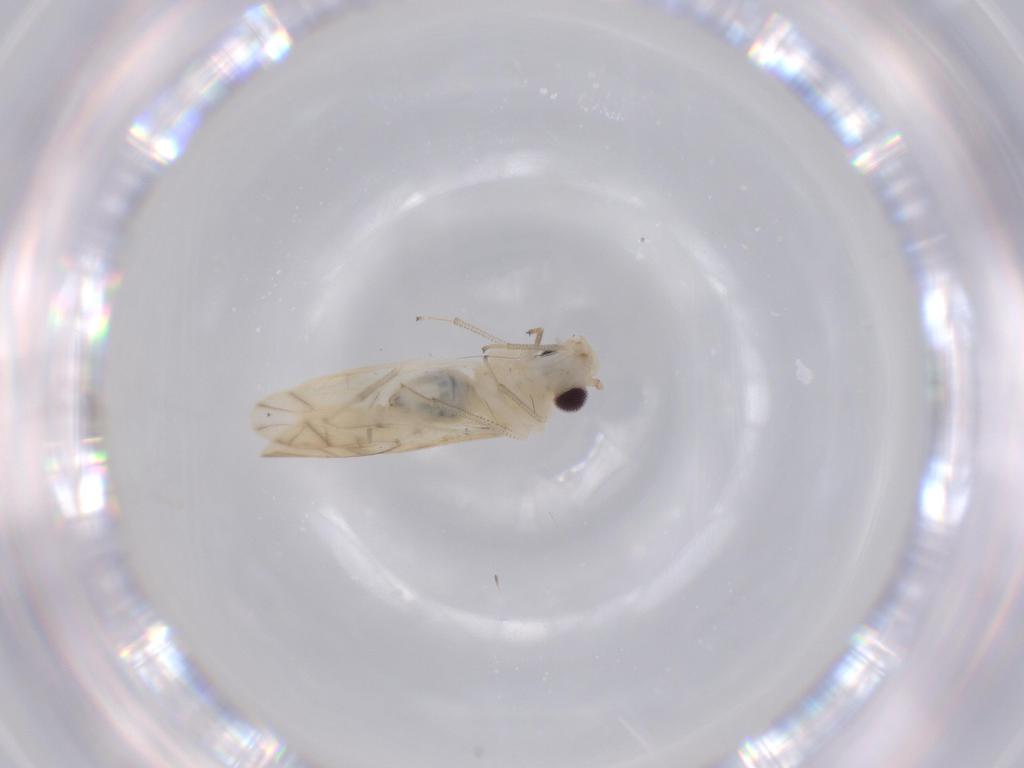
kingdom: Animalia
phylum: Arthropoda
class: Insecta
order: Psocodea
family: Caeciliusidae
